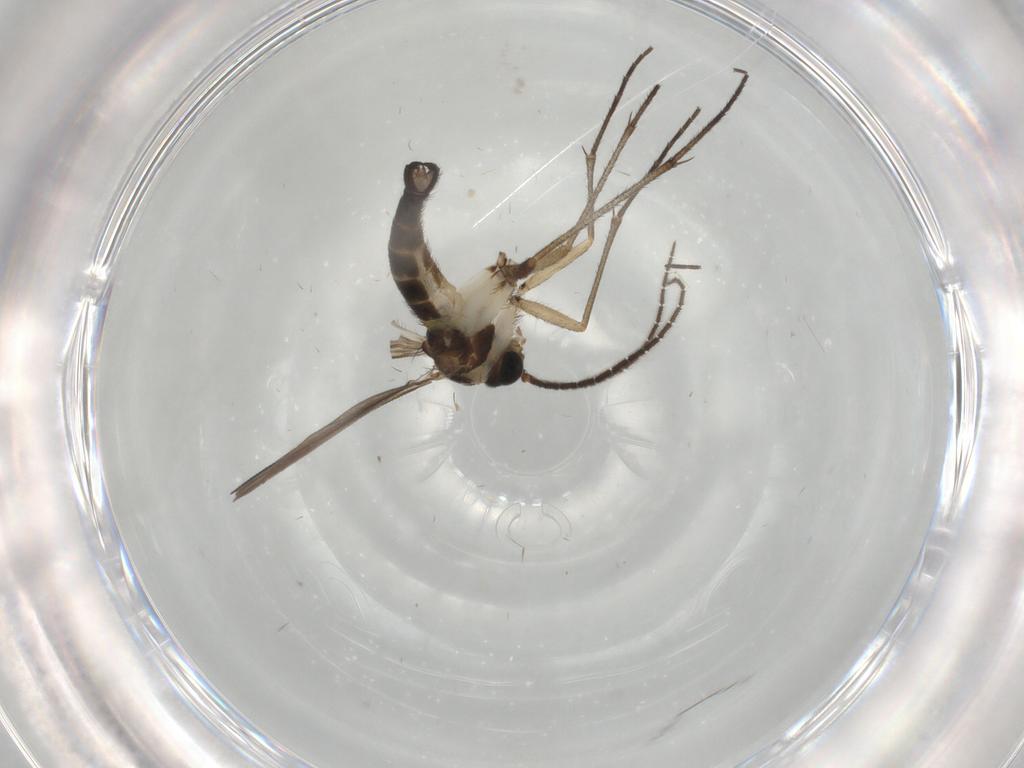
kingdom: Animalia
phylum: Arthropoda
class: Insecta
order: Diptera
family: Sciaridae
